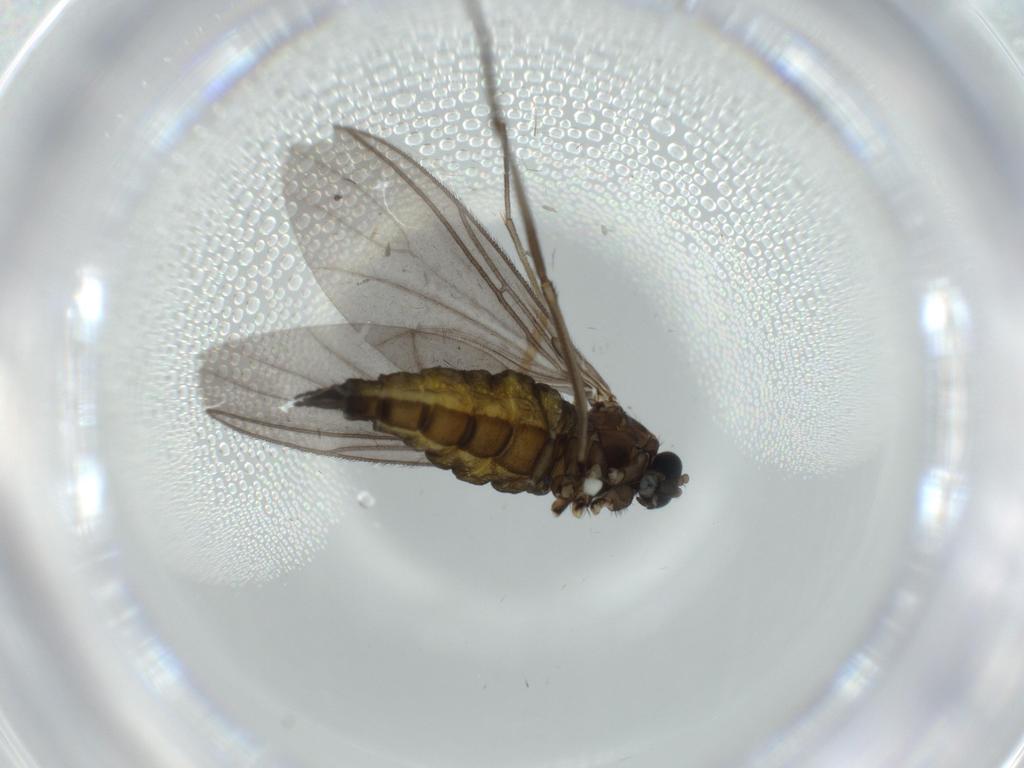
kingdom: Animalia
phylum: Arthropoda
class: Insecta
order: Diptera
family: Sciaridae
